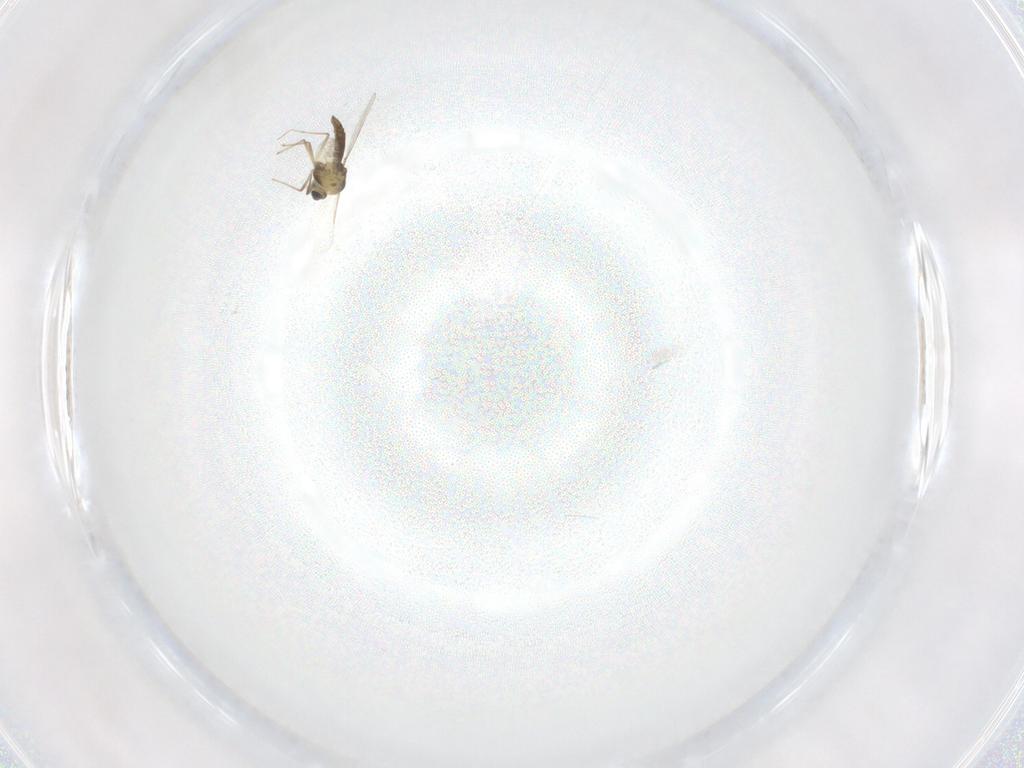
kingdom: Animalia
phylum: Arthropoda
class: Insecta
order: Diptera
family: Chironomidae
